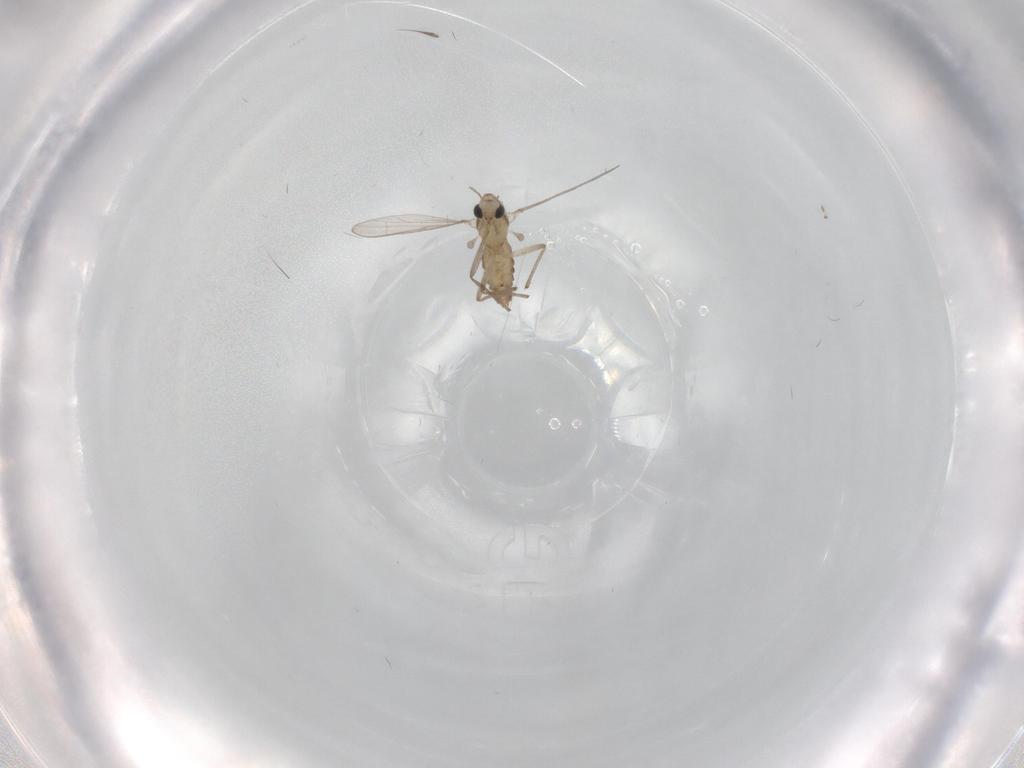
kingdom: Animalia
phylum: Arthropoda
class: Insecta
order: Diptera
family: Cecidomyiidae
